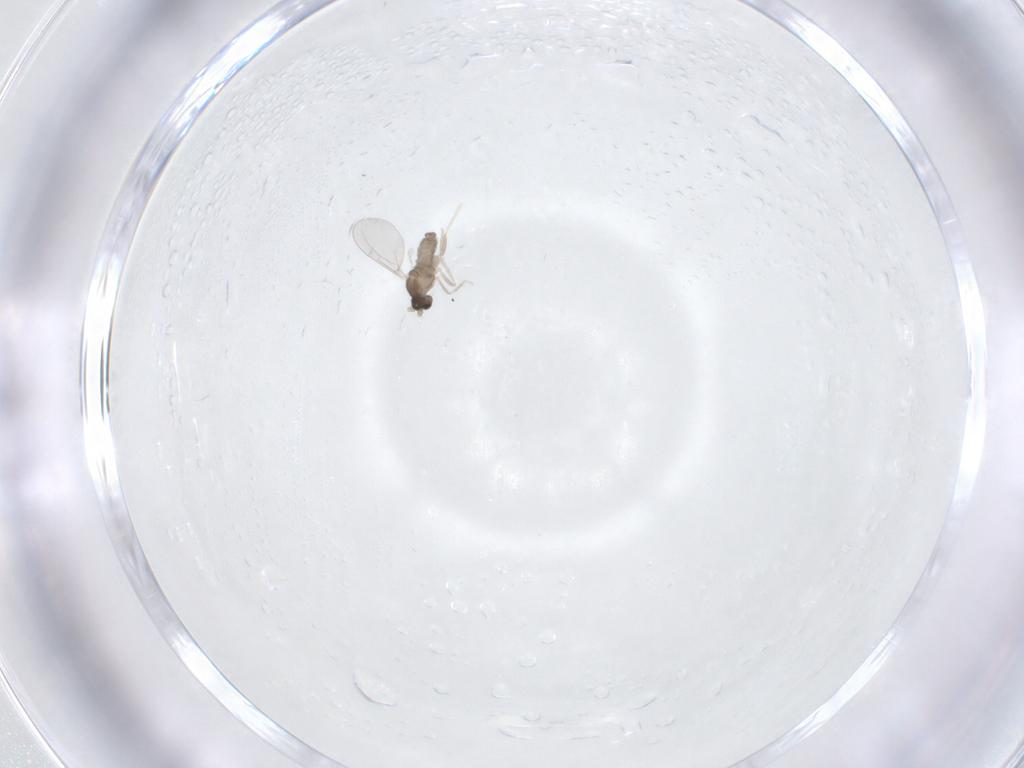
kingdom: Animalia
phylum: Arthropoda
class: Insecta
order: Diptera
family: Cecidomyiidae
